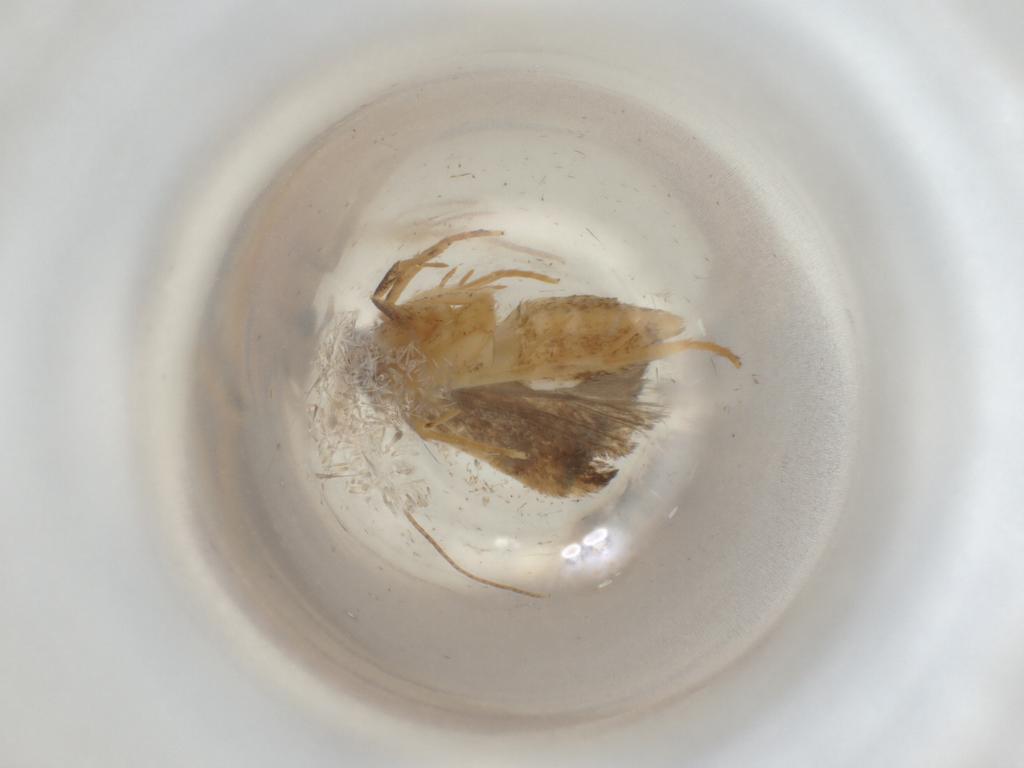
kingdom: Animalia
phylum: Arthropoda
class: Insecta
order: Lepidoptera
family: Gelechiidae
